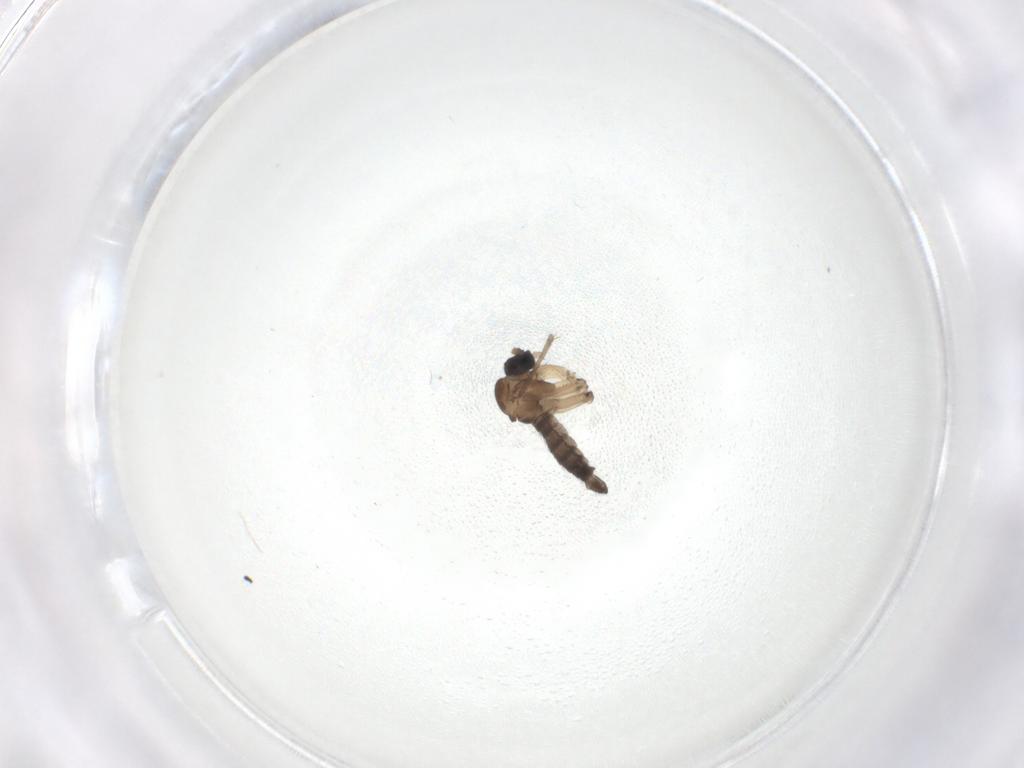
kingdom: Animalia
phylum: Arthropoda
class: Insecta
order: Diptera
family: Sciaridae
